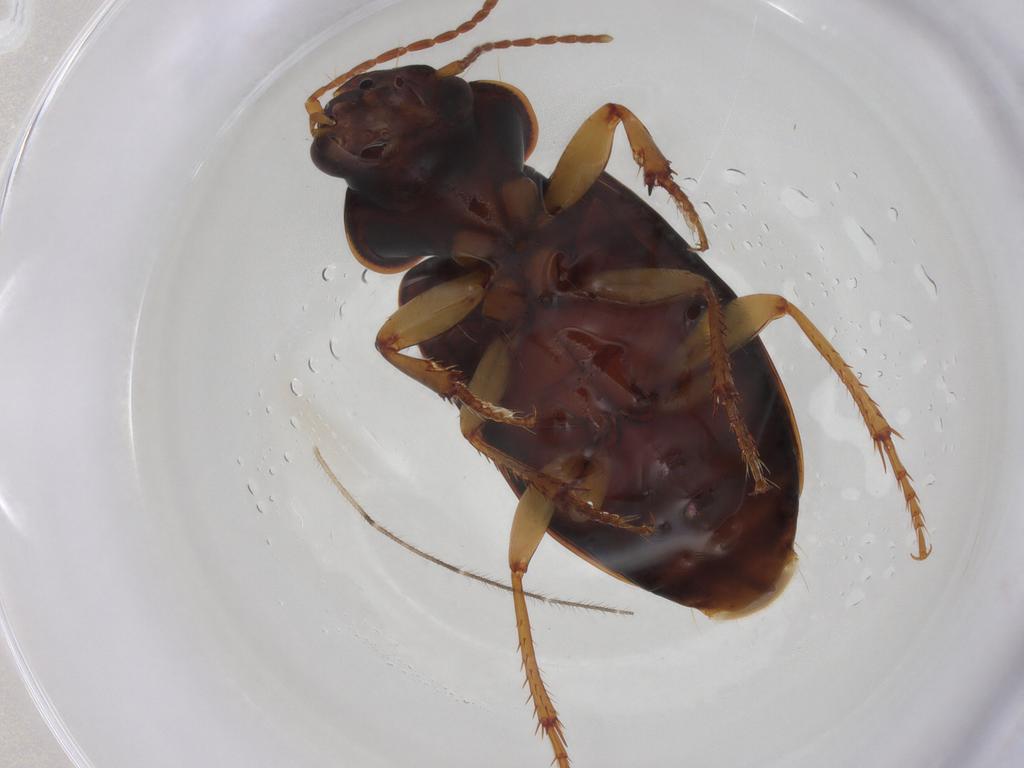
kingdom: Animalia
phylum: Arthropoda
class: Insecta
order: Coleoptera
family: Carabidae
